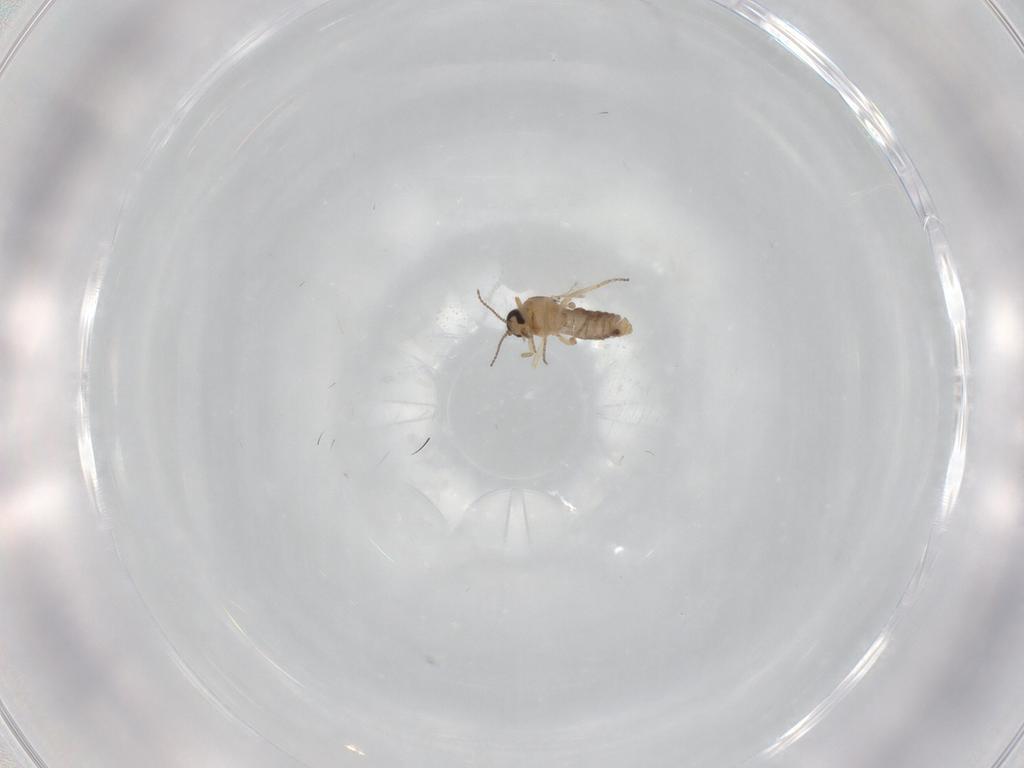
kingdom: Animalia
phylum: Arthropoda
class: Insecta
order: Diptera
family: Ceratopogonidae
